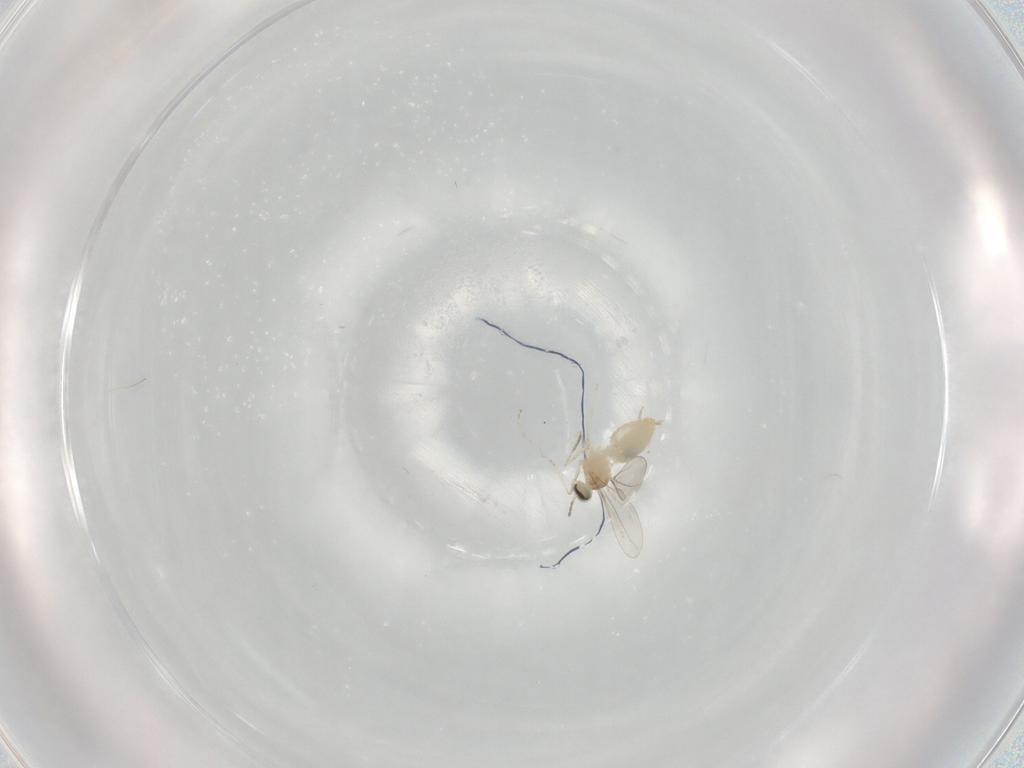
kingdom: Animalia
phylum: Arthropoda
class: Insecta
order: Diptera
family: Cecidomyiidae
